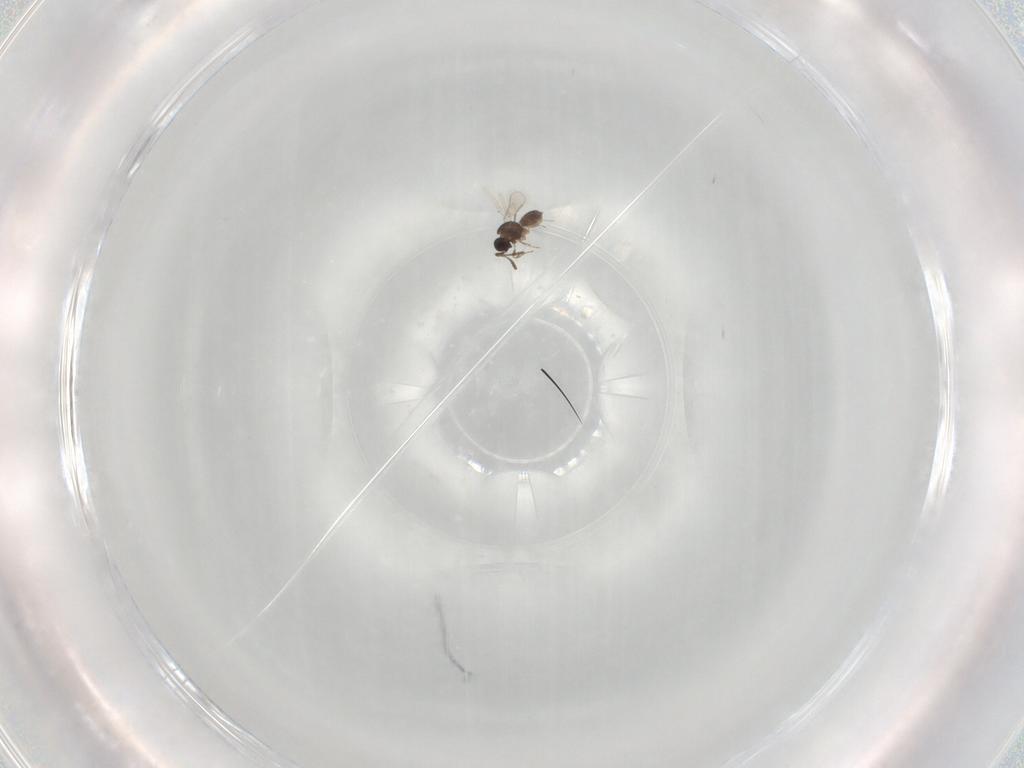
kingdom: Animalia
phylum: Arthropoda
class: Insecta
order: Hymenoptera
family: Scelionidae
